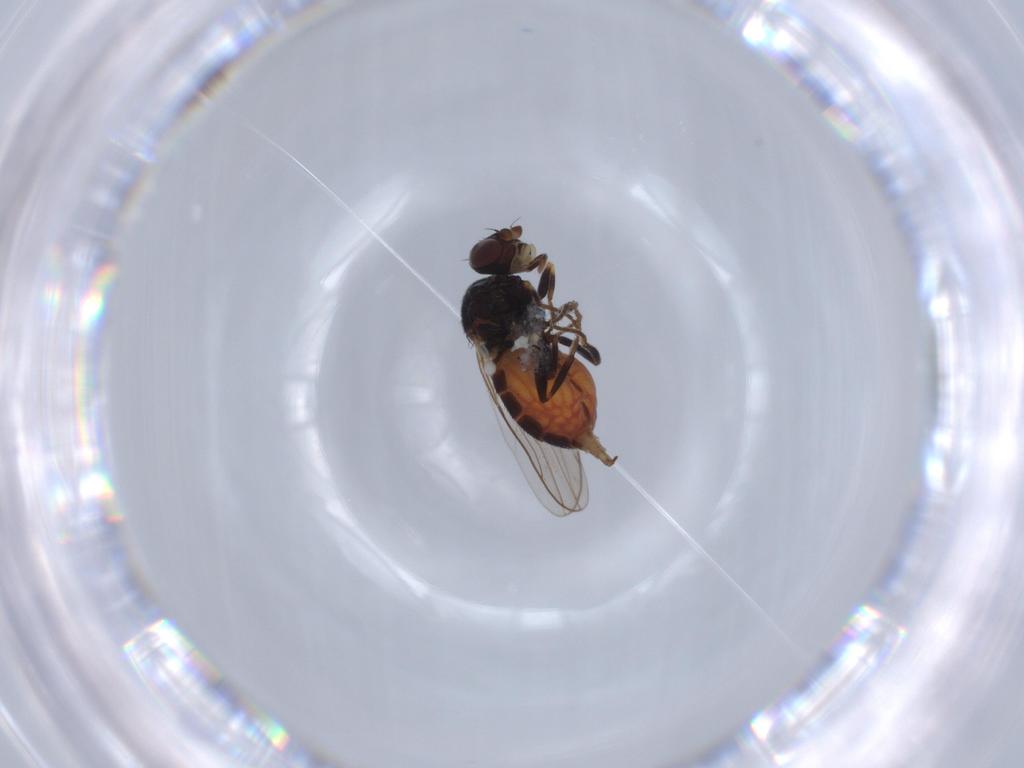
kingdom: Animalia
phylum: Arthropoda
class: Insecta
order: Diptera
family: Chloropidae
